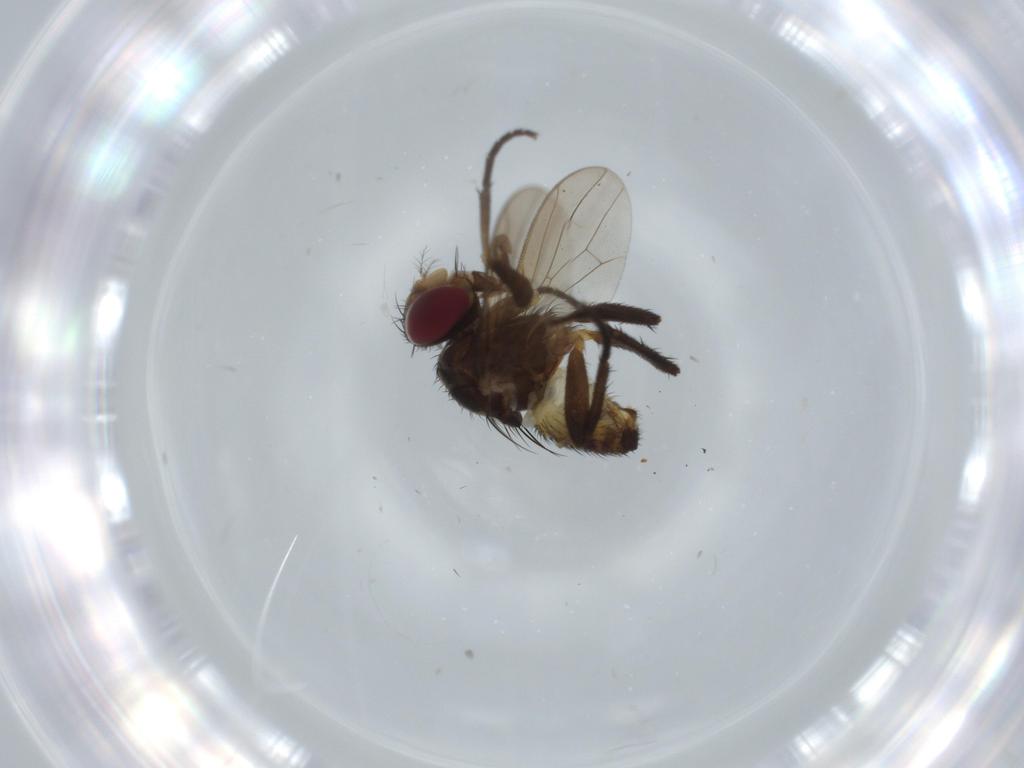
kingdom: Animalia
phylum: Arthropoda
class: Insecta
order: Diptera
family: Anthomyiidae
